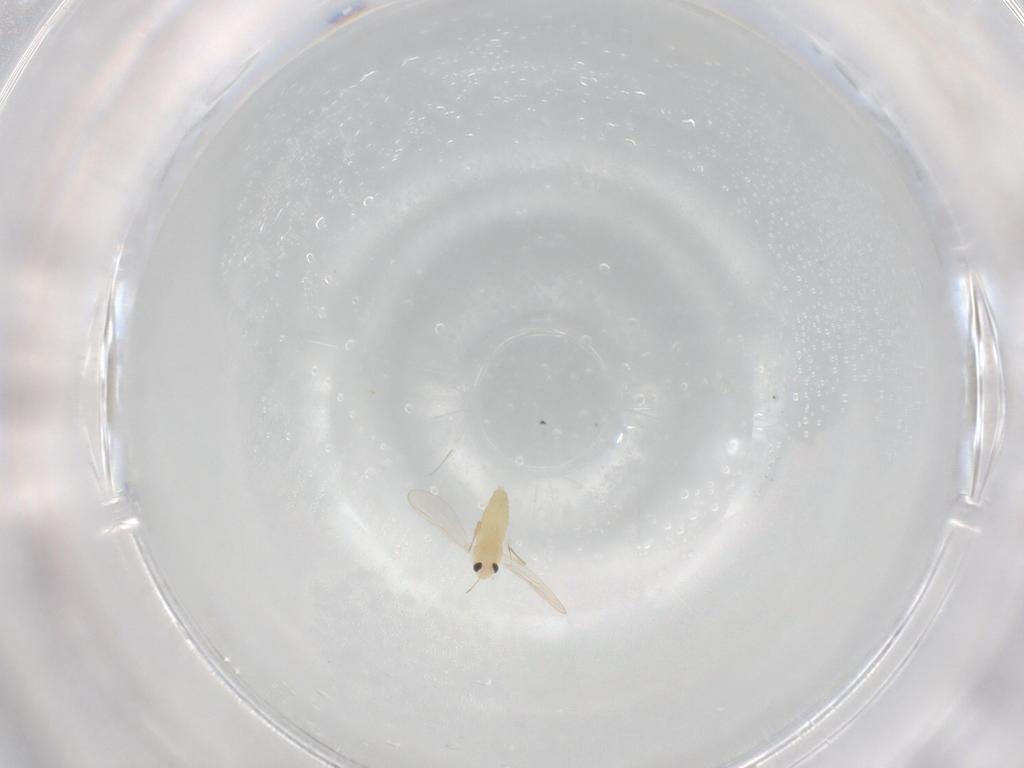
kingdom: Animalia
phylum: Arthropoda
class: Insecta
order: Diptera
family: Chironomidae
